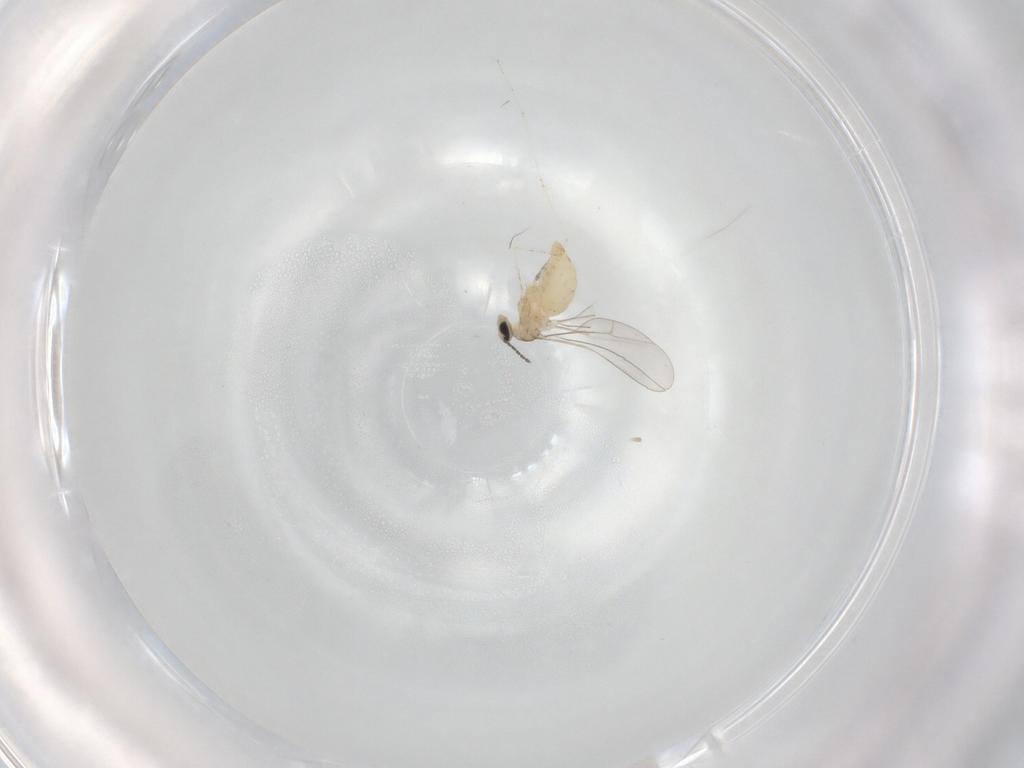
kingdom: Animalia
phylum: Arthropoda
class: Insecta
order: Diptera
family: Cecidomyiidae
